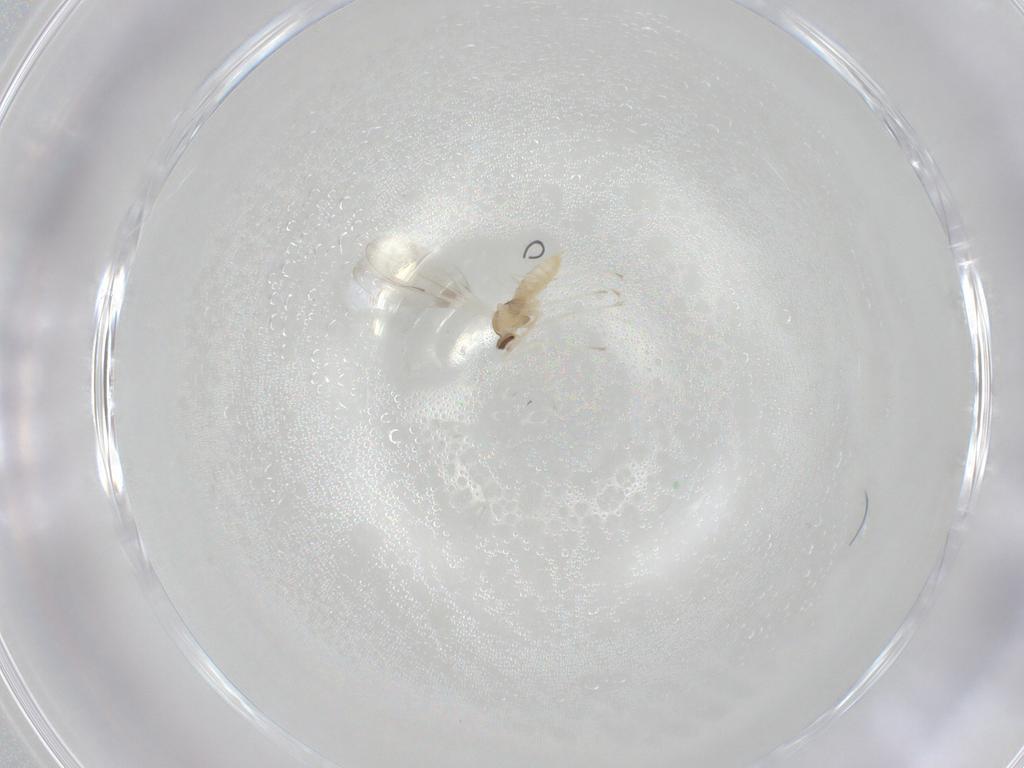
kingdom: Animalia
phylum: Arthropoda
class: Insecta
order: Diptera
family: Cecidomyiidae
